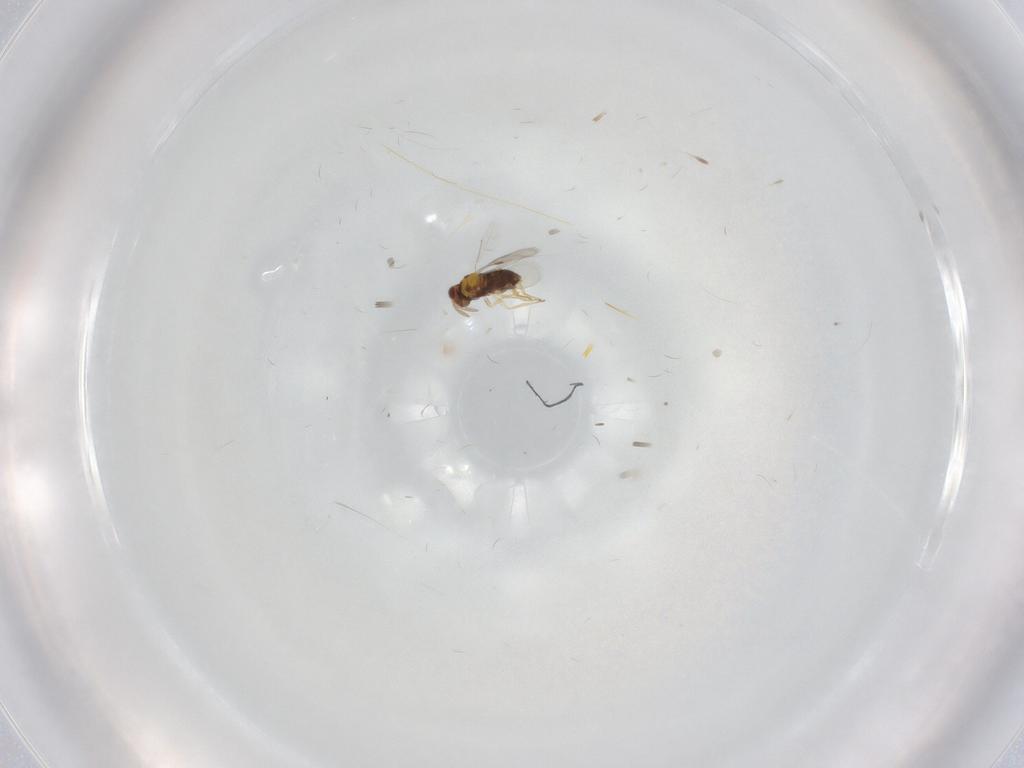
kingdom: Animalia
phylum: Arthropoda
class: Insecta
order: Hymenoptera
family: Aphelinidae
